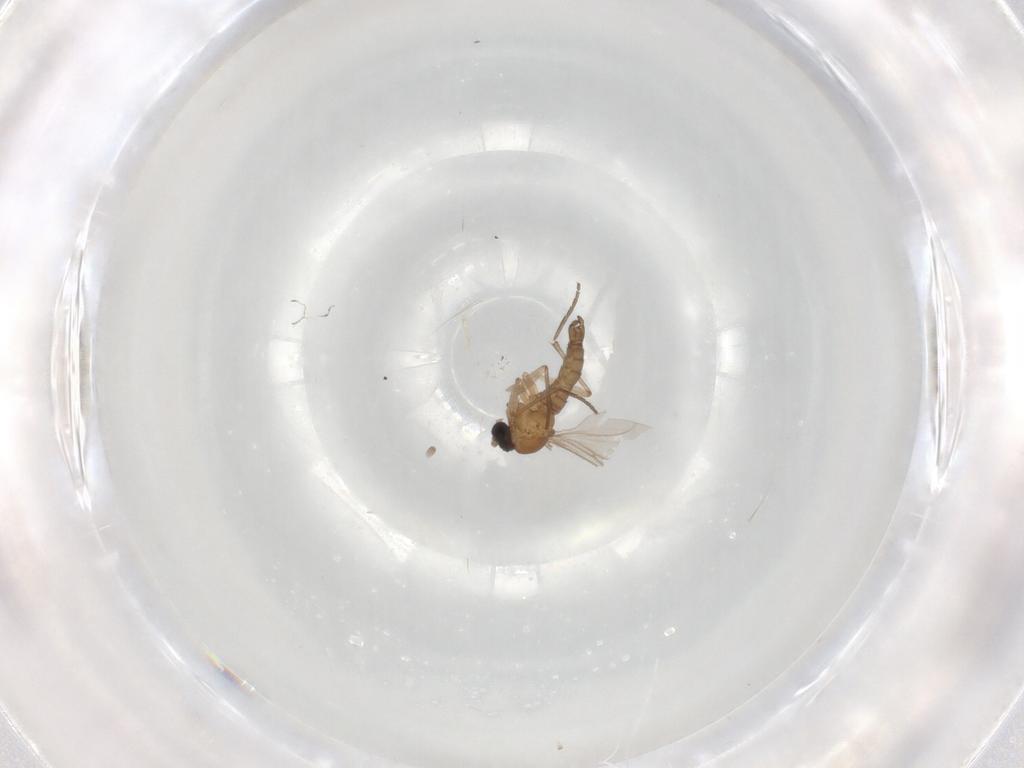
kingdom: Animalia
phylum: Arthropoda
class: Insecta
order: Diptera
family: Sciaridae
